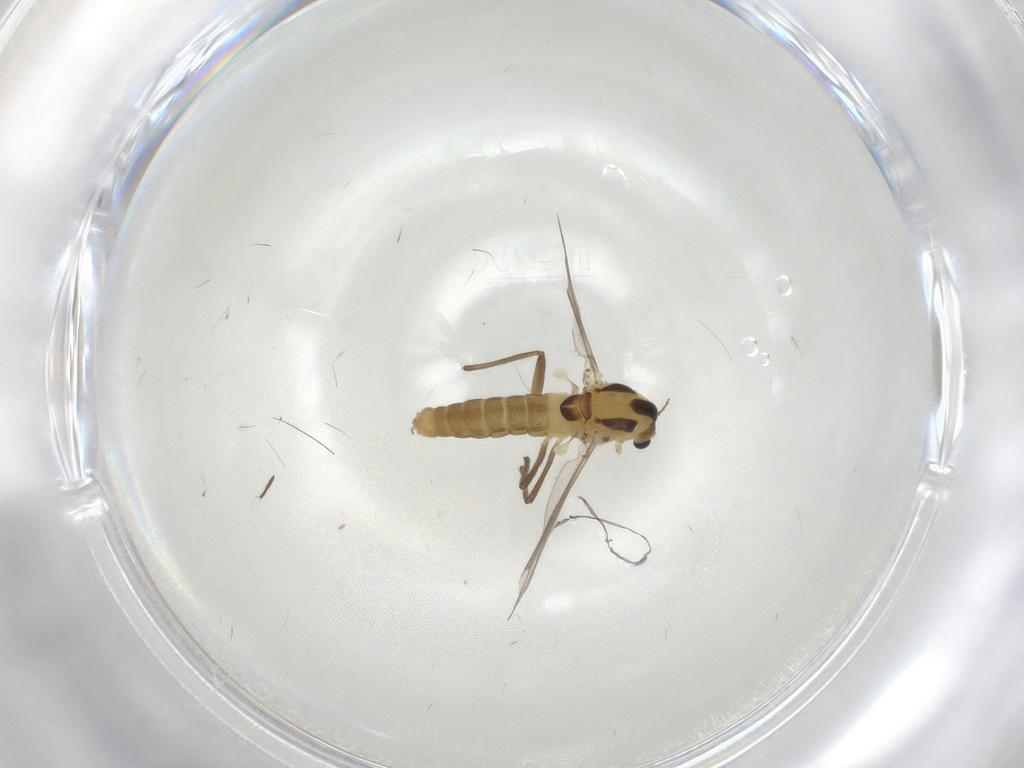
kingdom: Animalia
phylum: Arthropoda
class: Insecta
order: Diptera
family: Chironomidae
